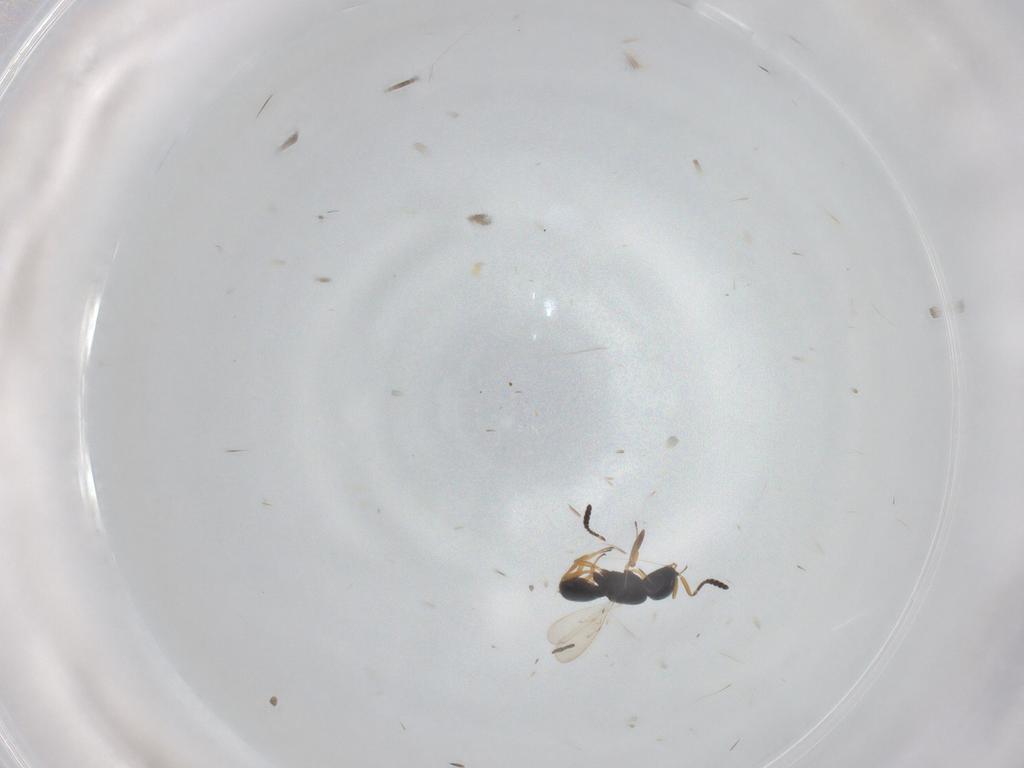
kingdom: Animalia
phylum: Arthropoda
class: Insecta
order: Hymenoptera
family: Scelionidae
